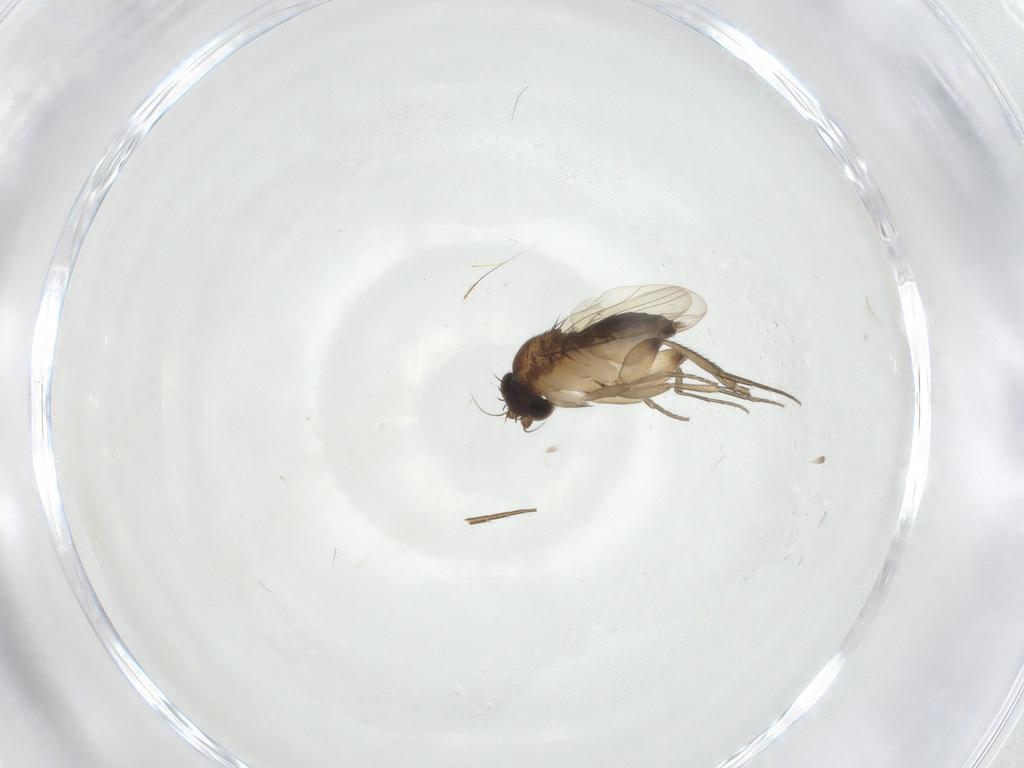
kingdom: Animalia
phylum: Arthropoda
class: Insecta
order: Diptera
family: Phoridae
